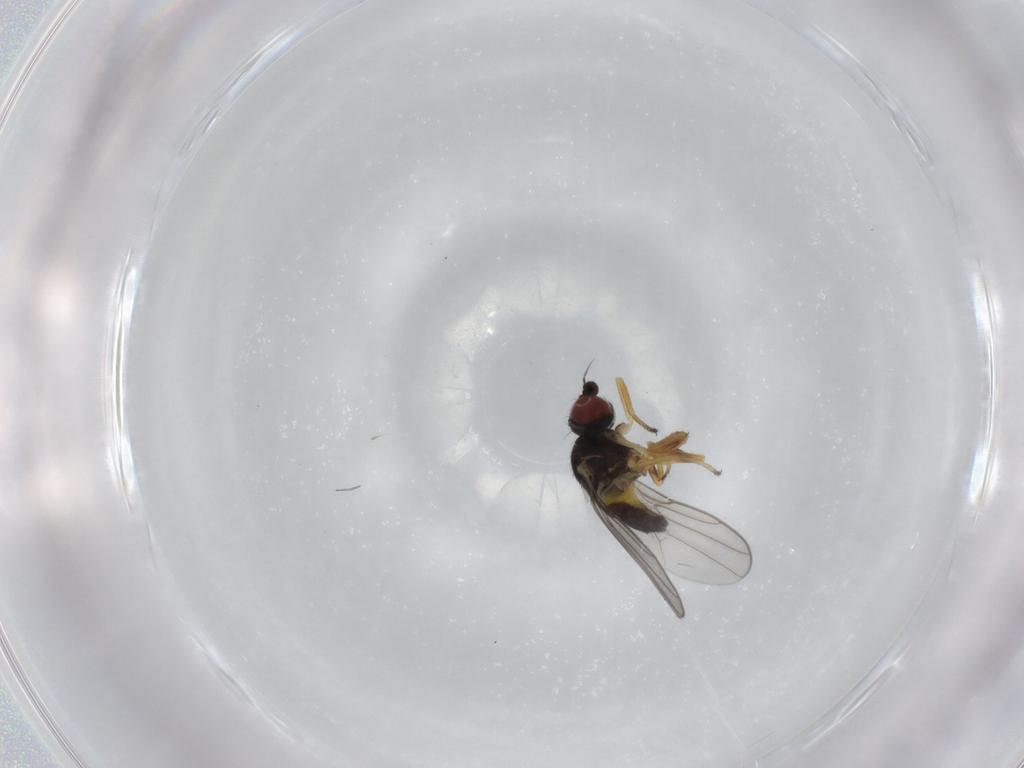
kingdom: Animalia
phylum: Arthropoda
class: Insecta
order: Diptera
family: Chloropidae
